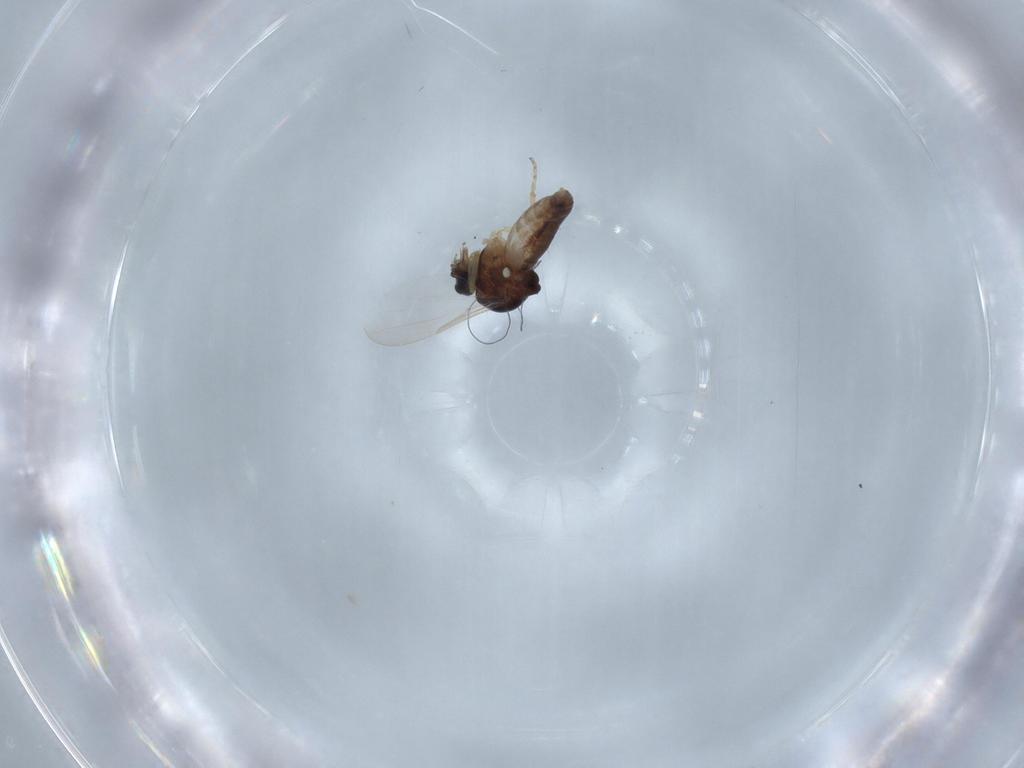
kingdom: Animalia
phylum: Arthropoda
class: Insecta
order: Diptera
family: Ceratopogonidae
